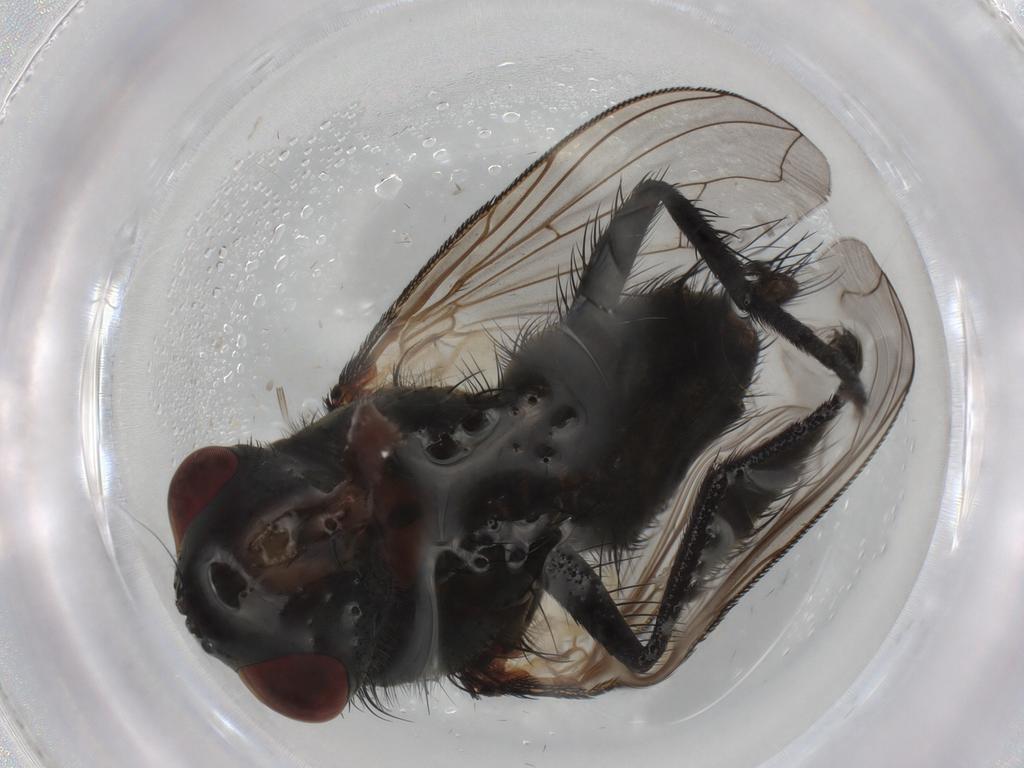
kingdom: Animalia
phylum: Arthropoda
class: Insecta
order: Diptera
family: Tachinidae
